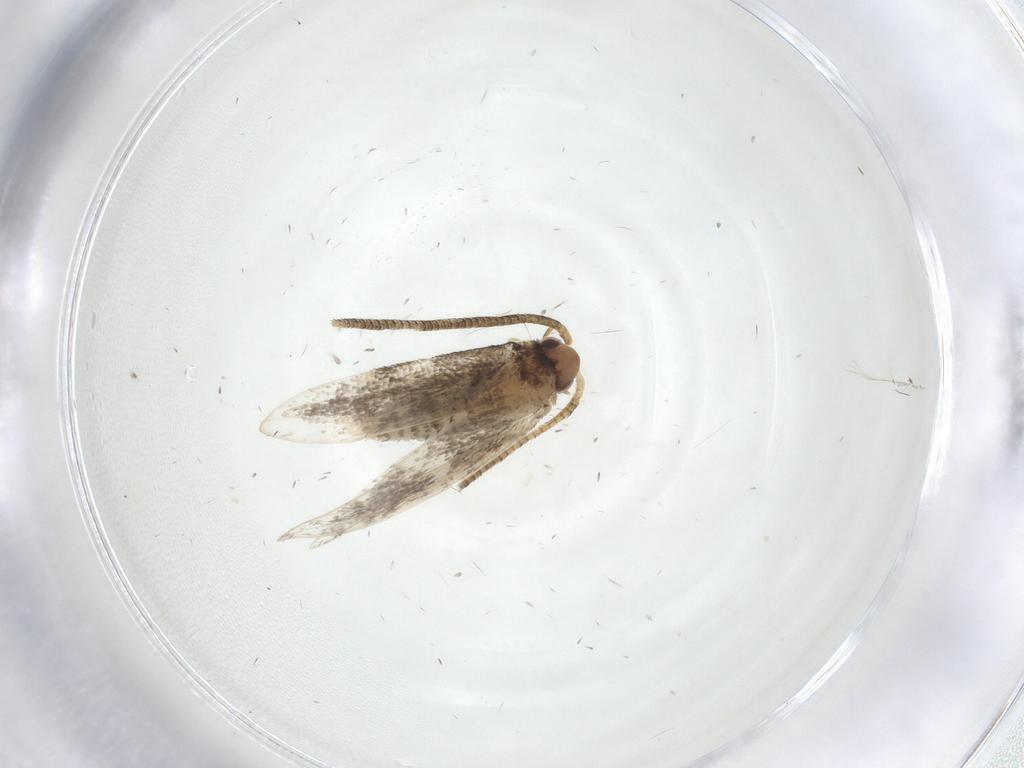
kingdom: Animalia
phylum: Arthropoda
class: Insecta
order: Lepidoptera
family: Tineidae
